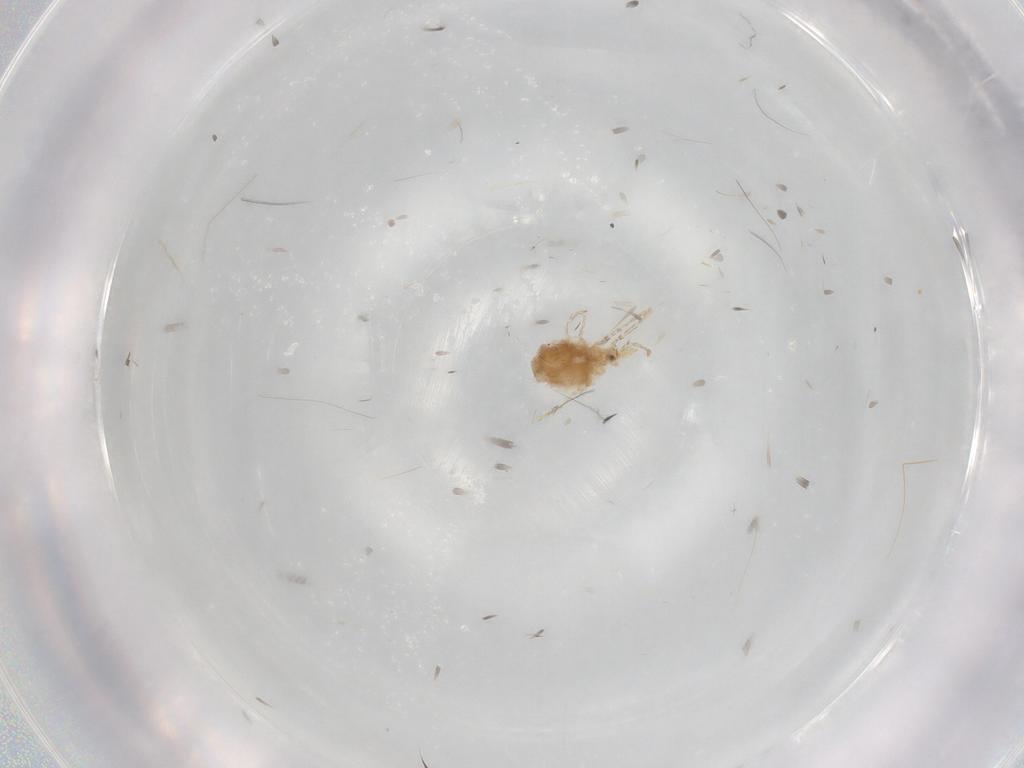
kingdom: Animalia
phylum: Arthropoda
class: Arachnida
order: Trombidiformes
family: Erythraeidae
